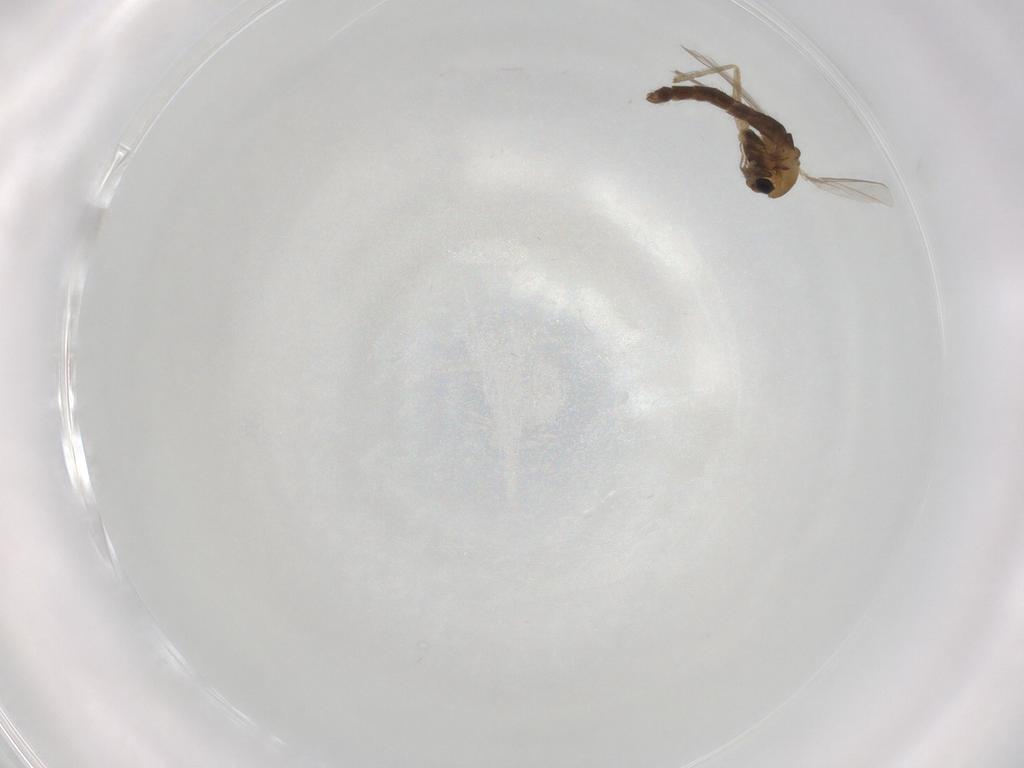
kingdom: Animalia
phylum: Arthropoda
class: Insecta
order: Diptera
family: Chironomidae
